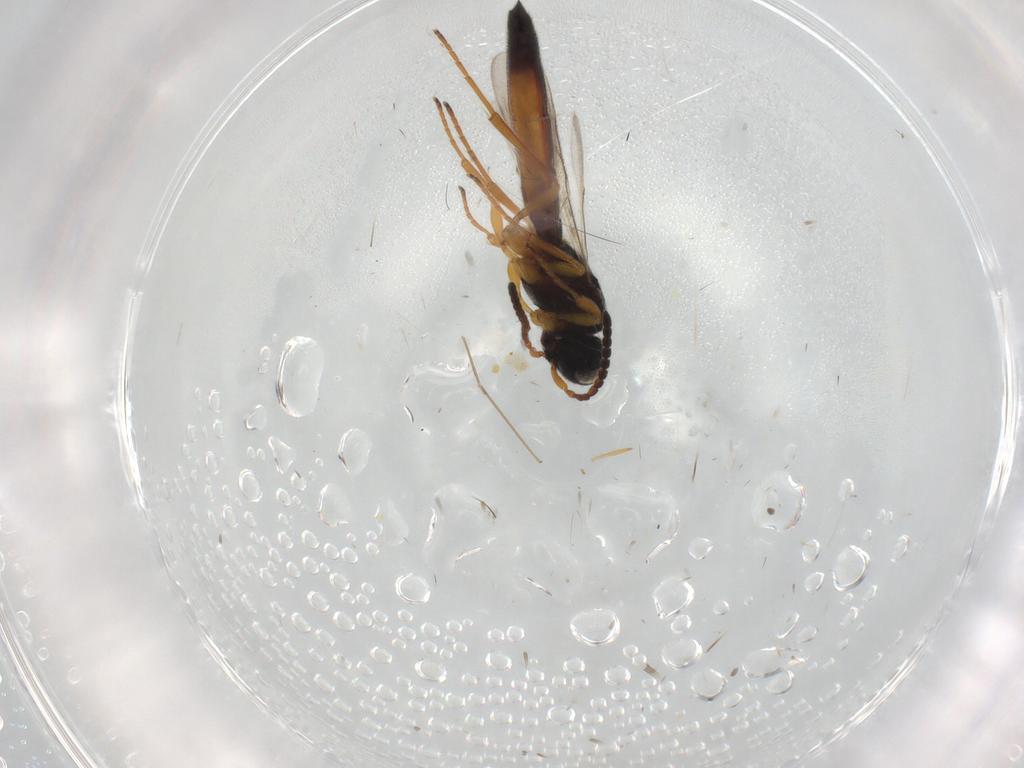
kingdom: Animalia
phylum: Arthropoda
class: Insecta
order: Hymenoptera
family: Scelionidae
